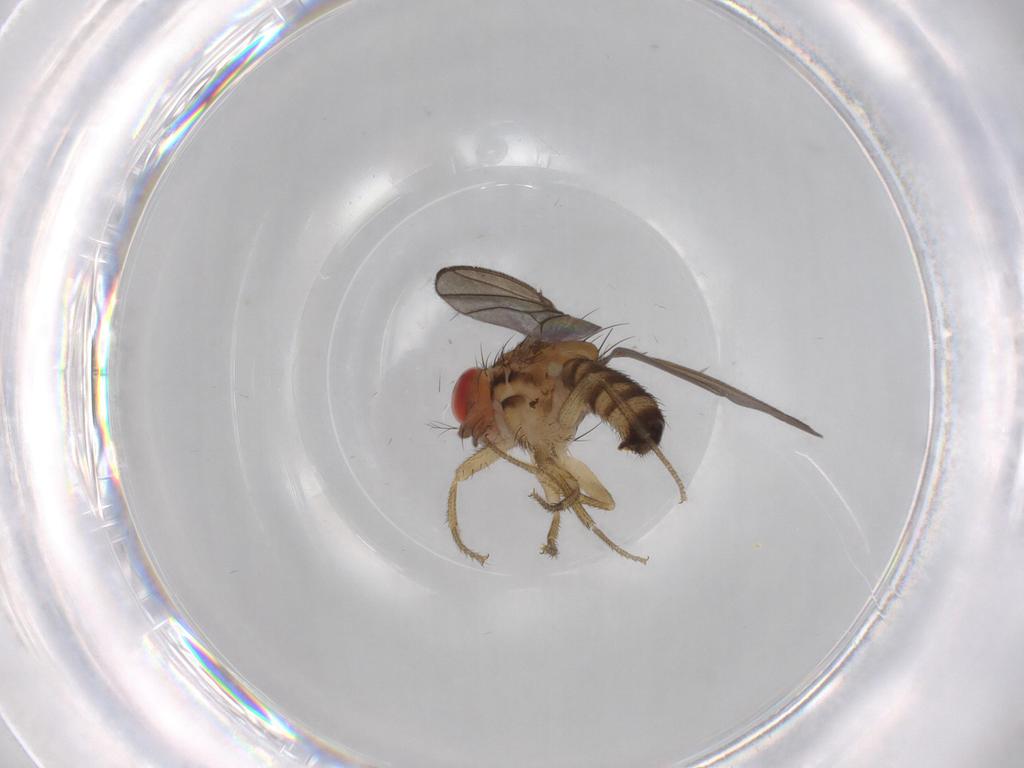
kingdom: Animalia
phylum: Arthropoda
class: Insecta
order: Diptera
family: Drosophilidae
